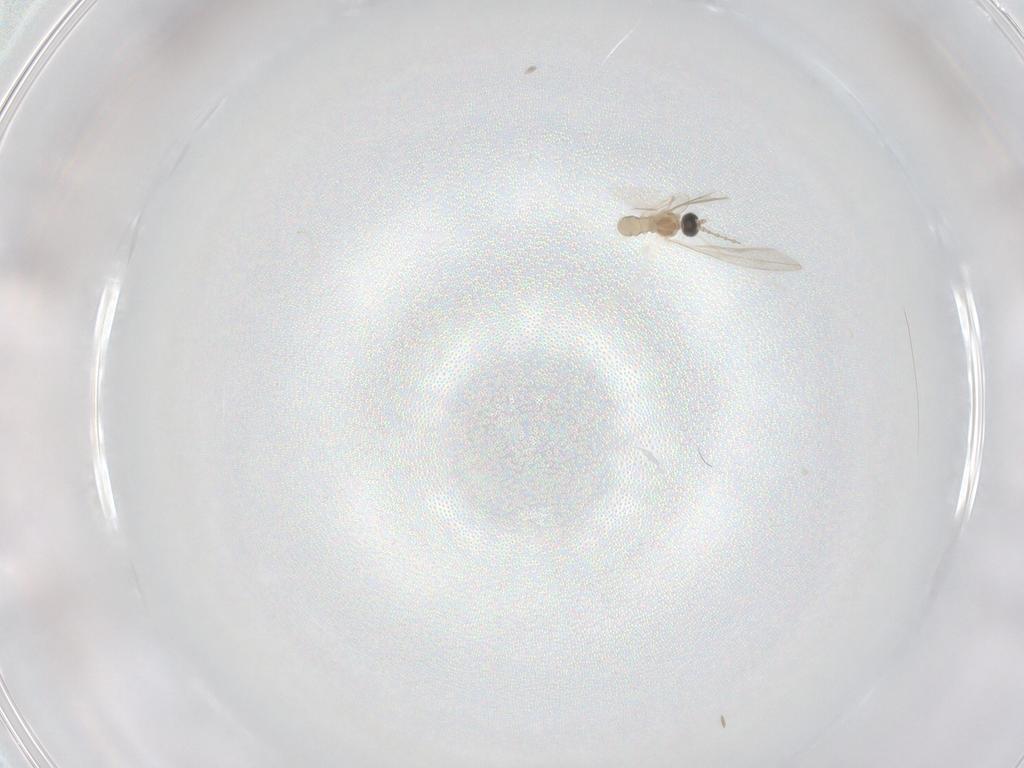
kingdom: Animalia
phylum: Arthropoda
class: Insecta
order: Diptera
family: Cecidomyiidae
